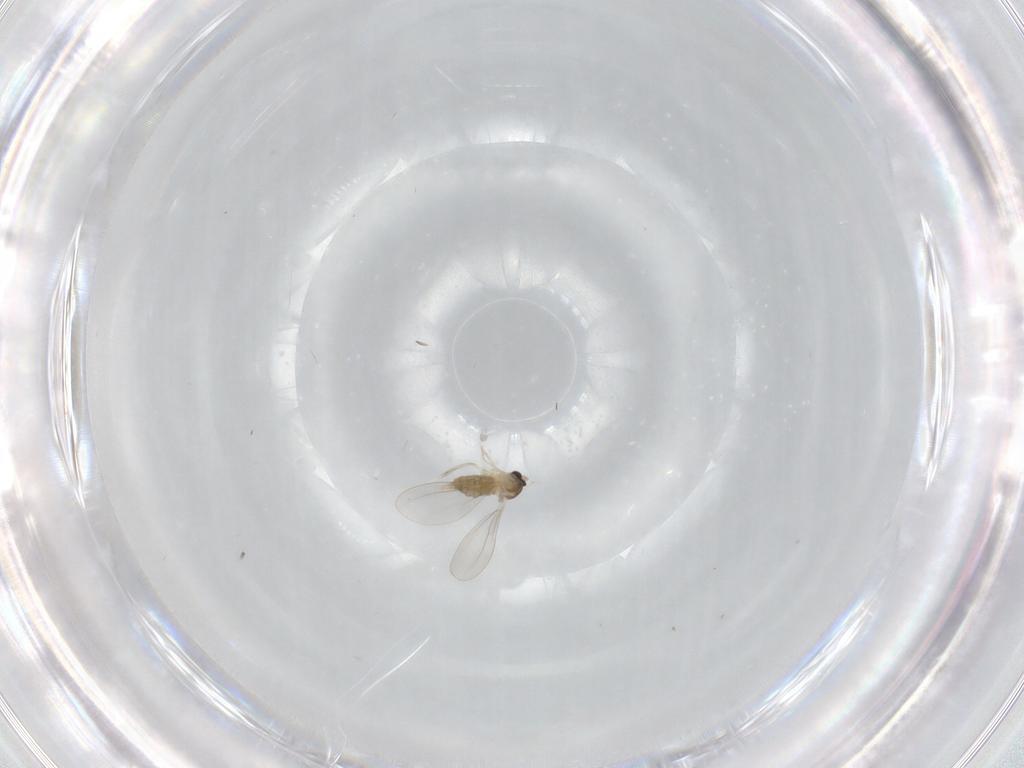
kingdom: Animalia
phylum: Arthropoda
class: Insecta
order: Diptera
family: Cecidomyiidae
